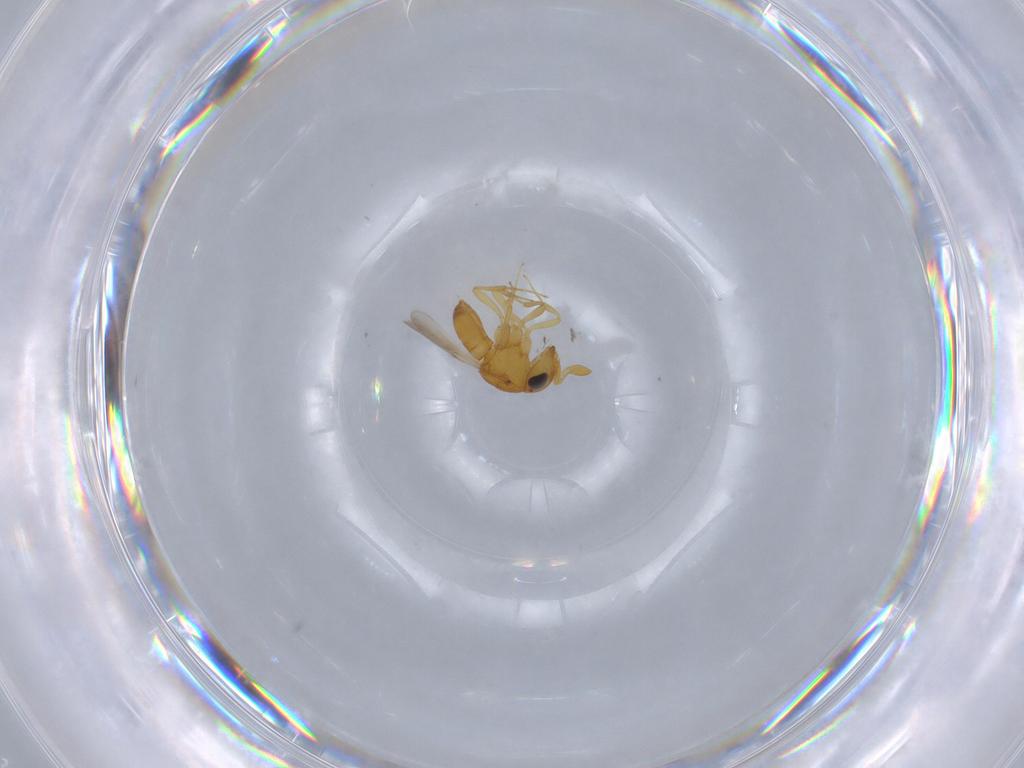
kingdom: Animalia
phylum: Arthropoda
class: Insecta
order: Hymenoptera
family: Scelionidae
